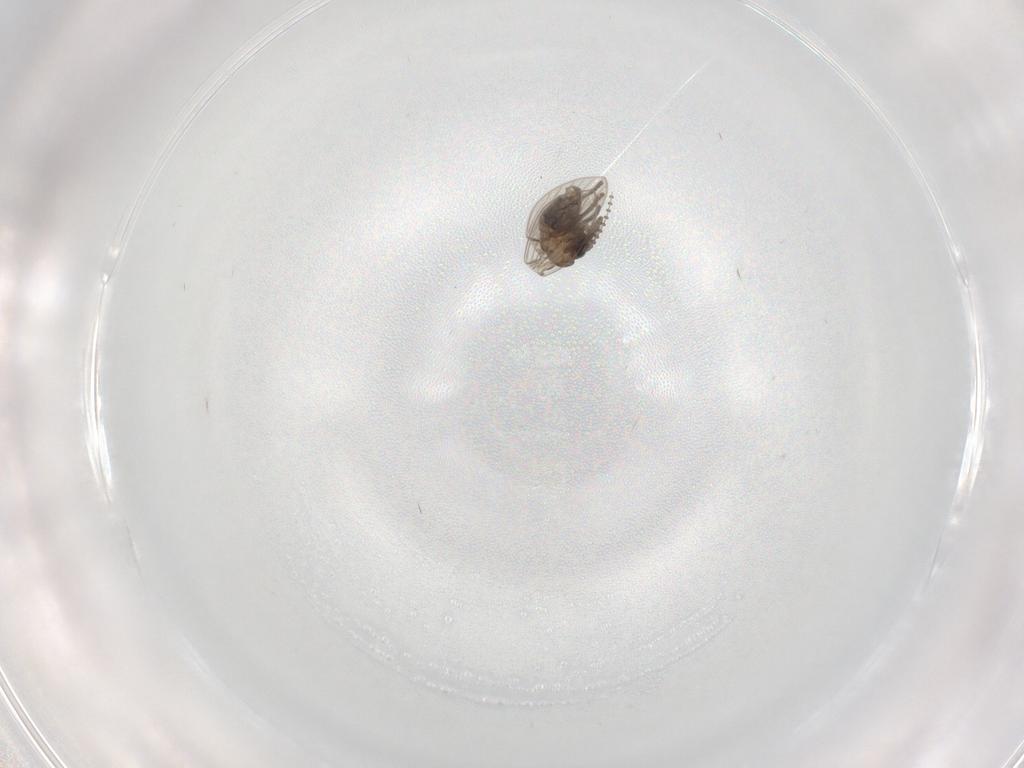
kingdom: Animalia
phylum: Arthropoda
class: Insecta
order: Diptera
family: Psychodidae
